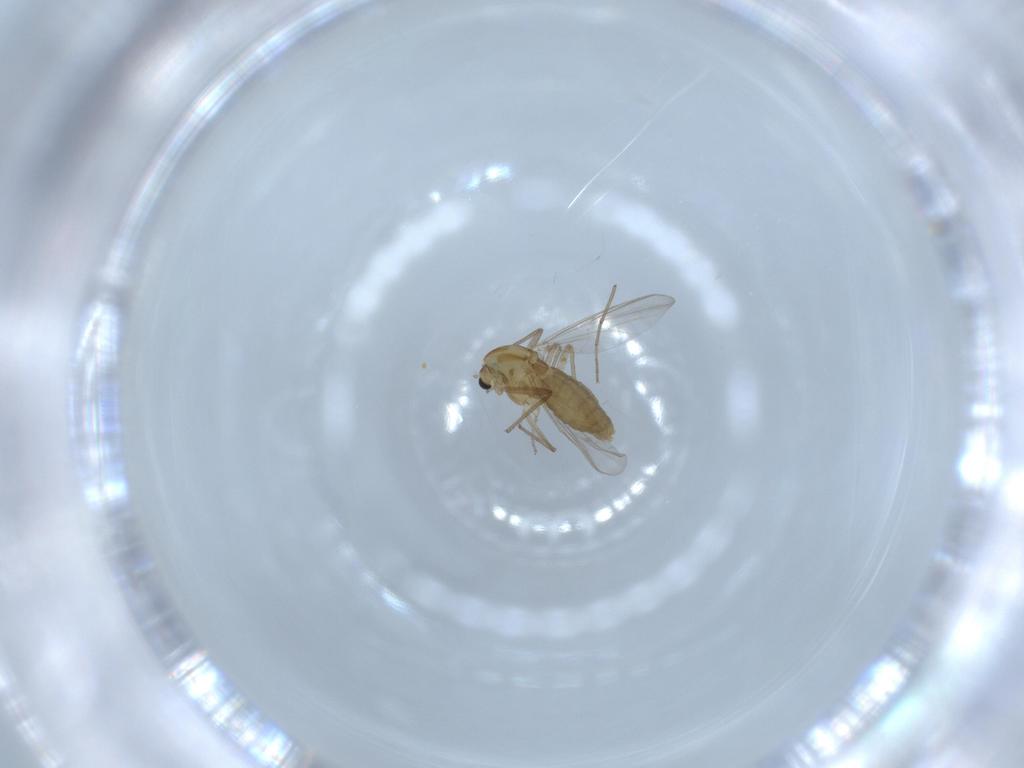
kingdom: Animalia
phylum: Arthropoda
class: Insecta
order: Diptera
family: Chironomidae
